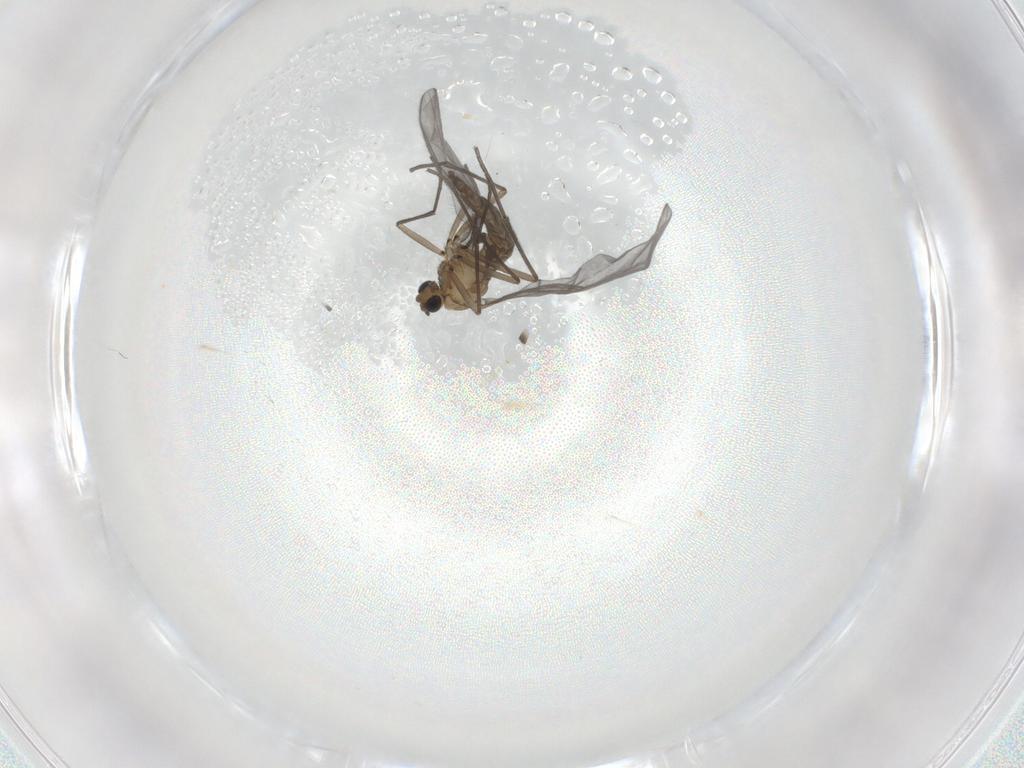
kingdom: Animalia
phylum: Arthropoda
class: Insecta
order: Diptera
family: Sciaridae
